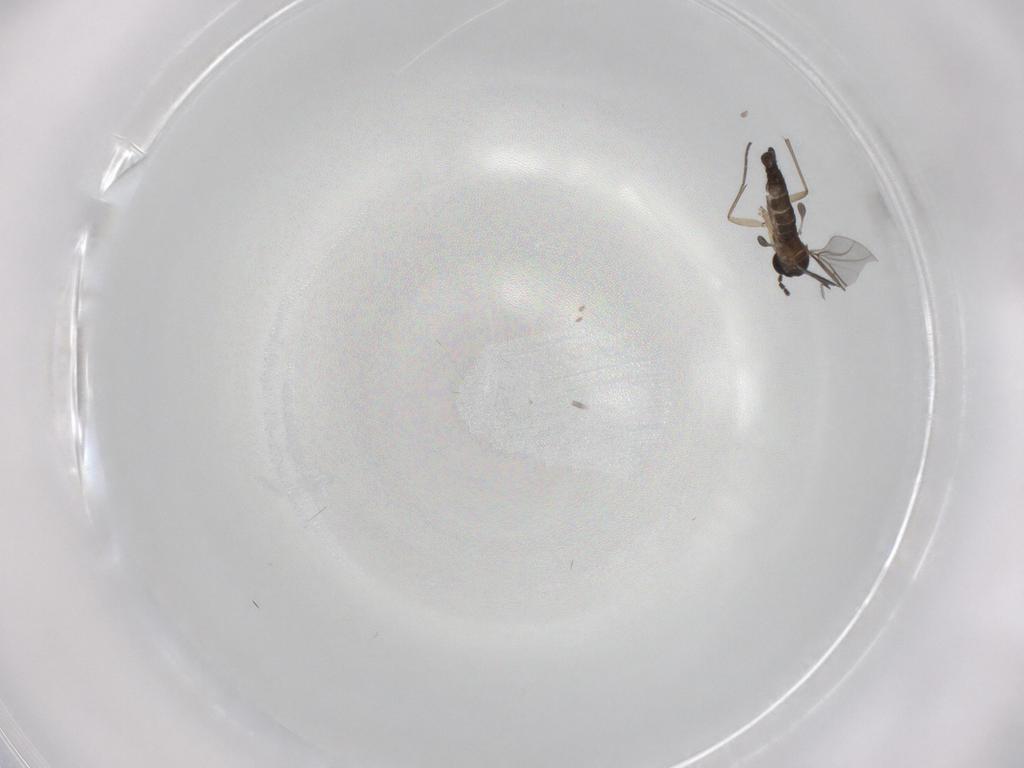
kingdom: Animalia
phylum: Arthropoda
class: Insecta
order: Diptera
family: Sciaridae
